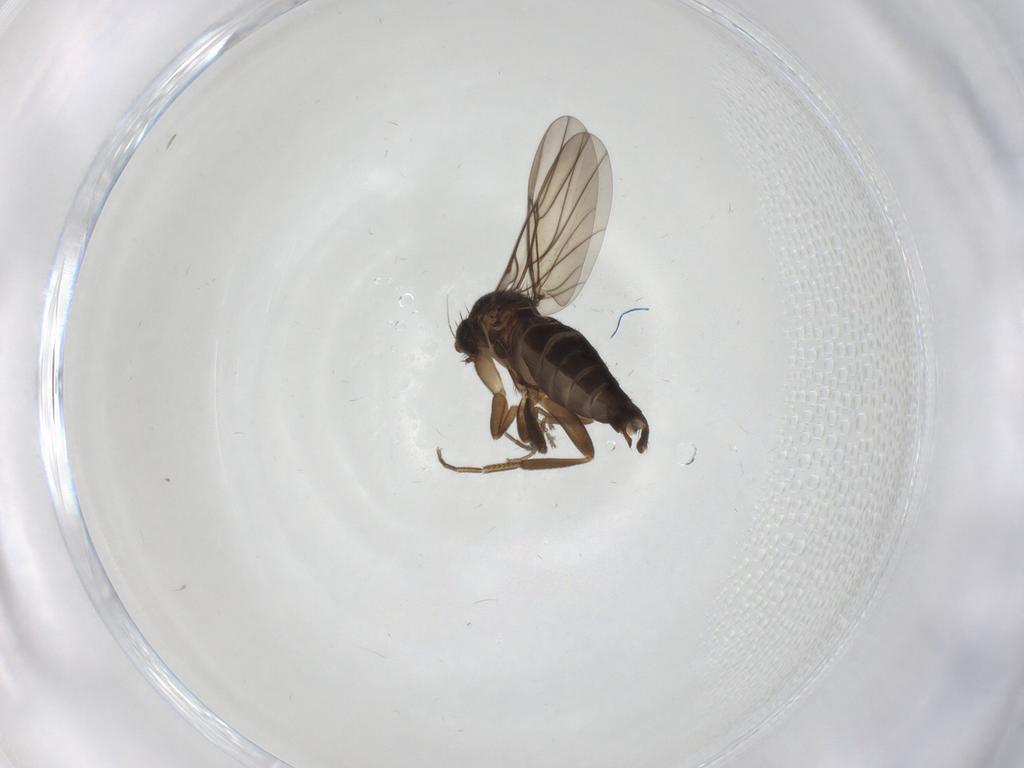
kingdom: Animalia
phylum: Arthropoda
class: Insecta
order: Diptera
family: Phoridae
